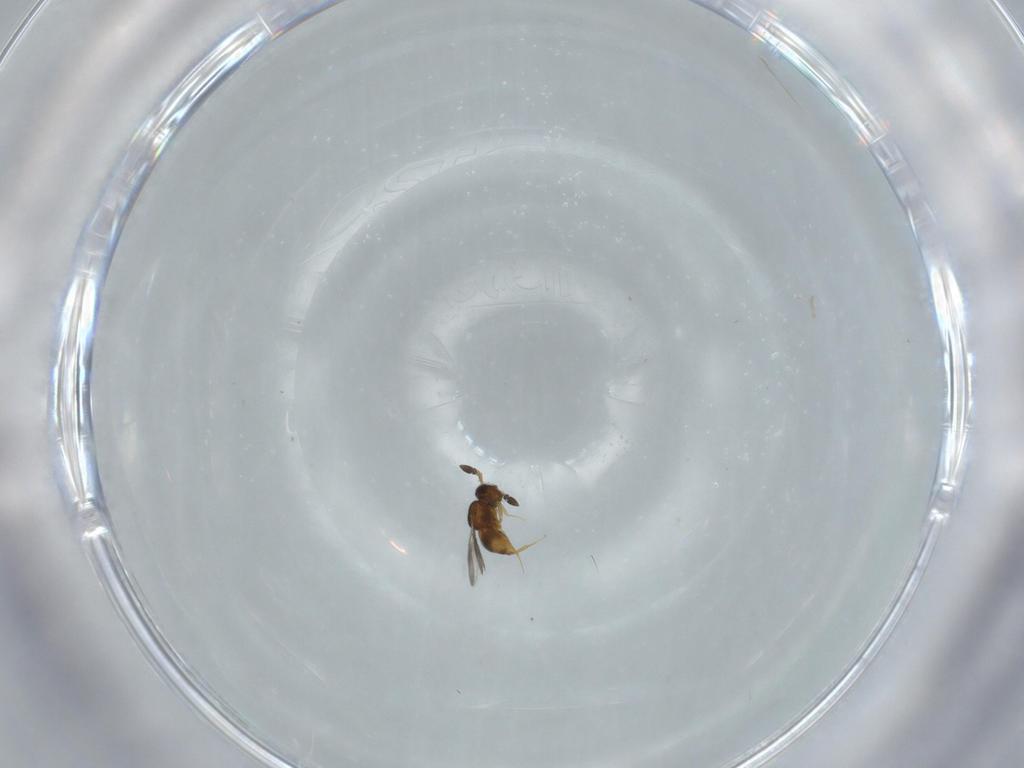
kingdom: Animalia
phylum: Arthropoda
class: Insecta
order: Hymenoptera
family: Ceraphronidae
